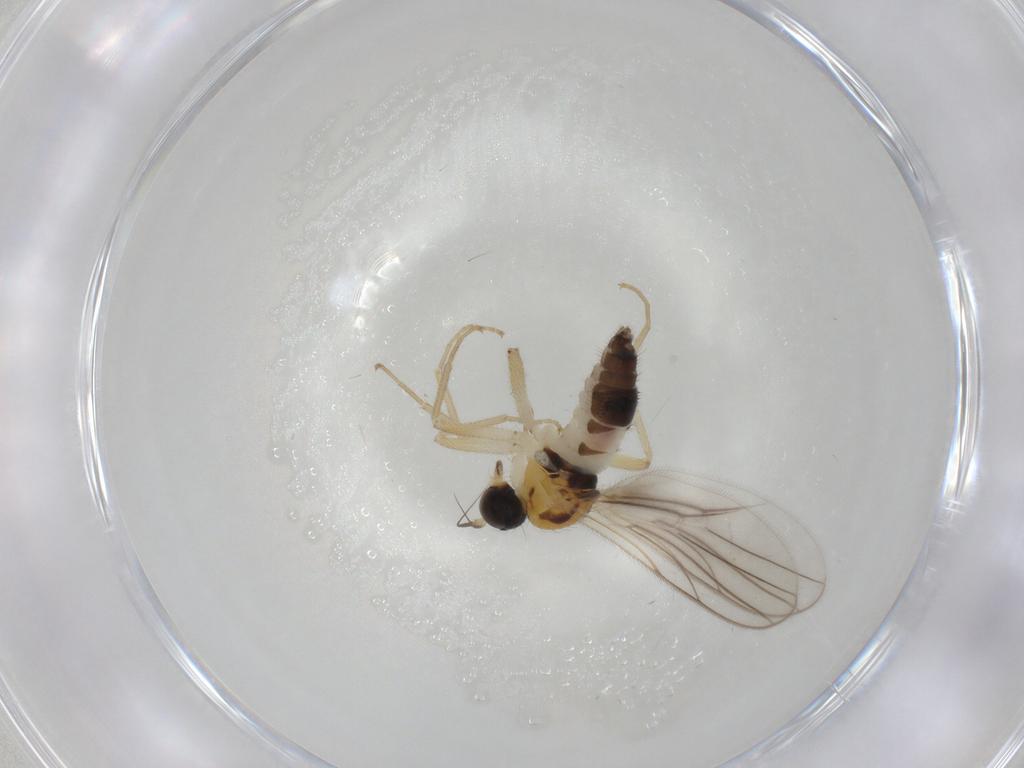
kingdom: Animalia
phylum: Arthropoda
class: Insecta
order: Diptera
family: Hybotidae
